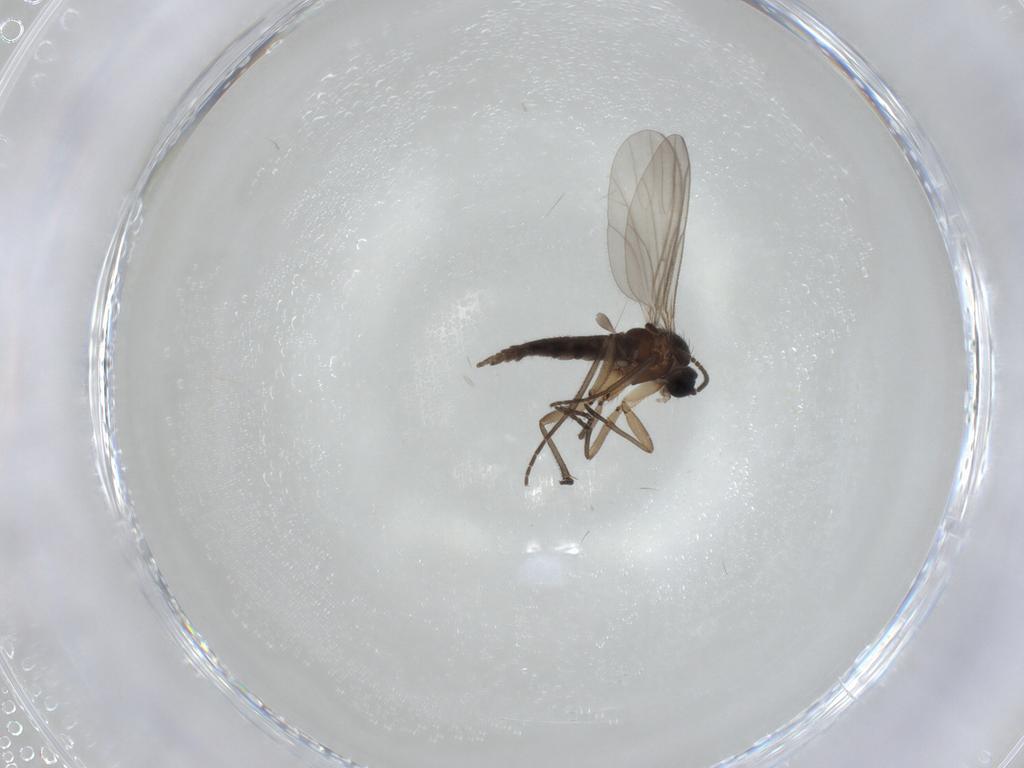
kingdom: Animalia
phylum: Arthropoda
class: Insecta
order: Diptera
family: Sciaridae
